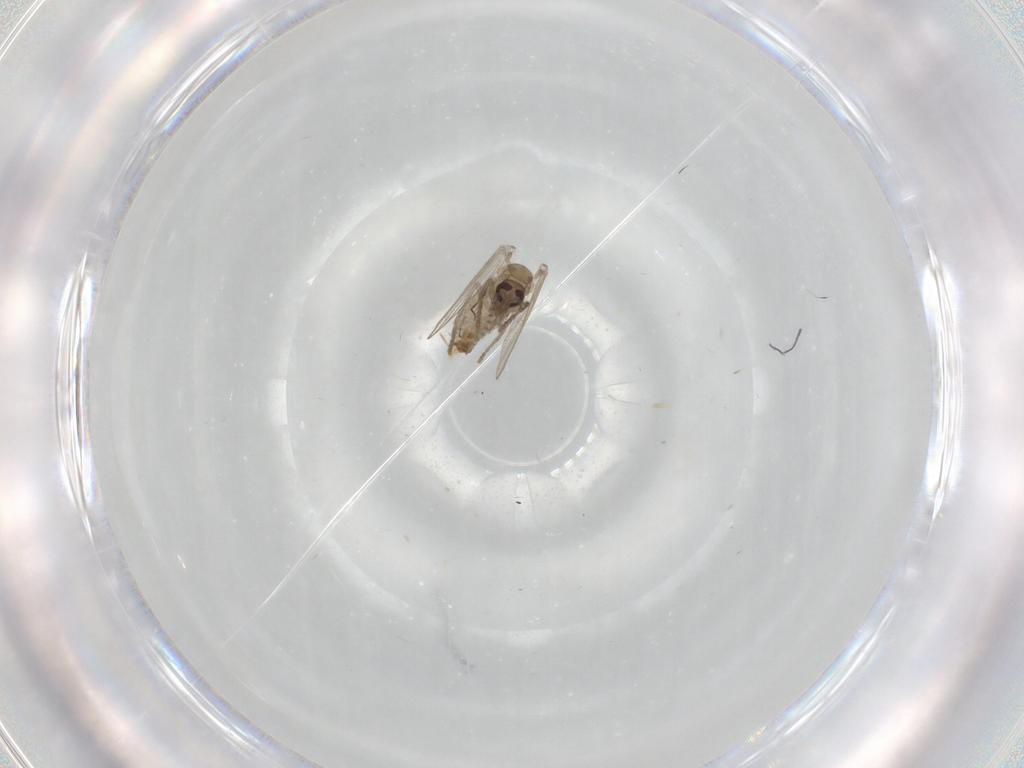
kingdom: Animalia
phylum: Arthropoda
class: Insecta
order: Diptera
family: Psychodidae
